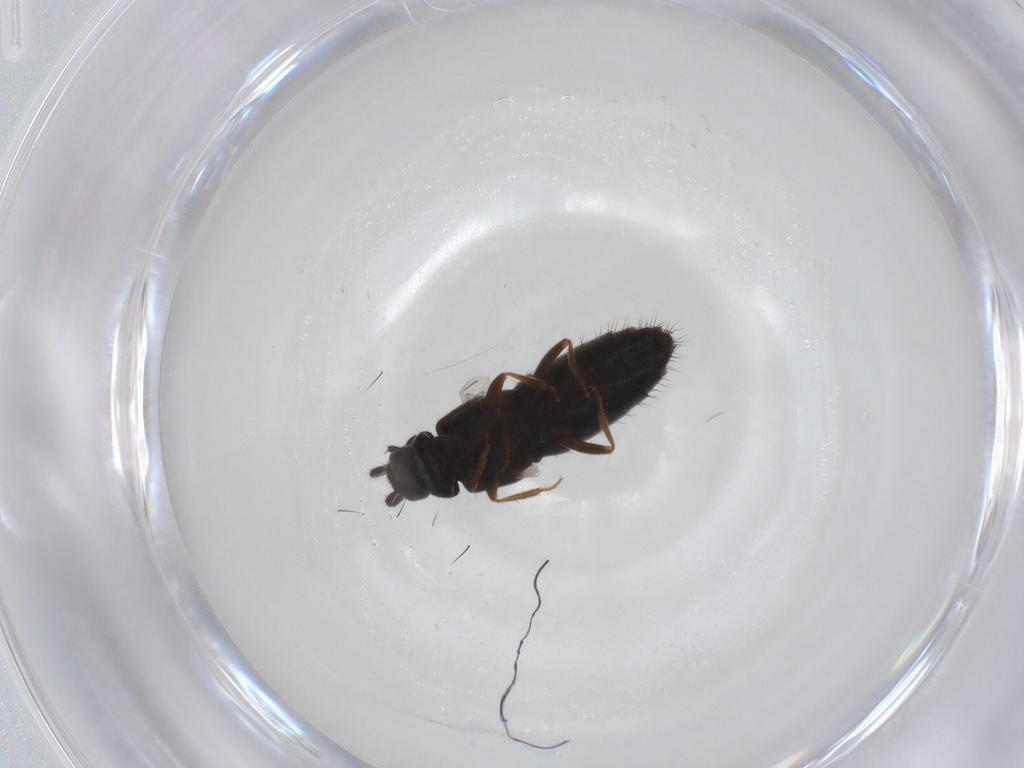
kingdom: Animalia
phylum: Arthropoda
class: Insecta
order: Coleoptera
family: Staphylinidae
